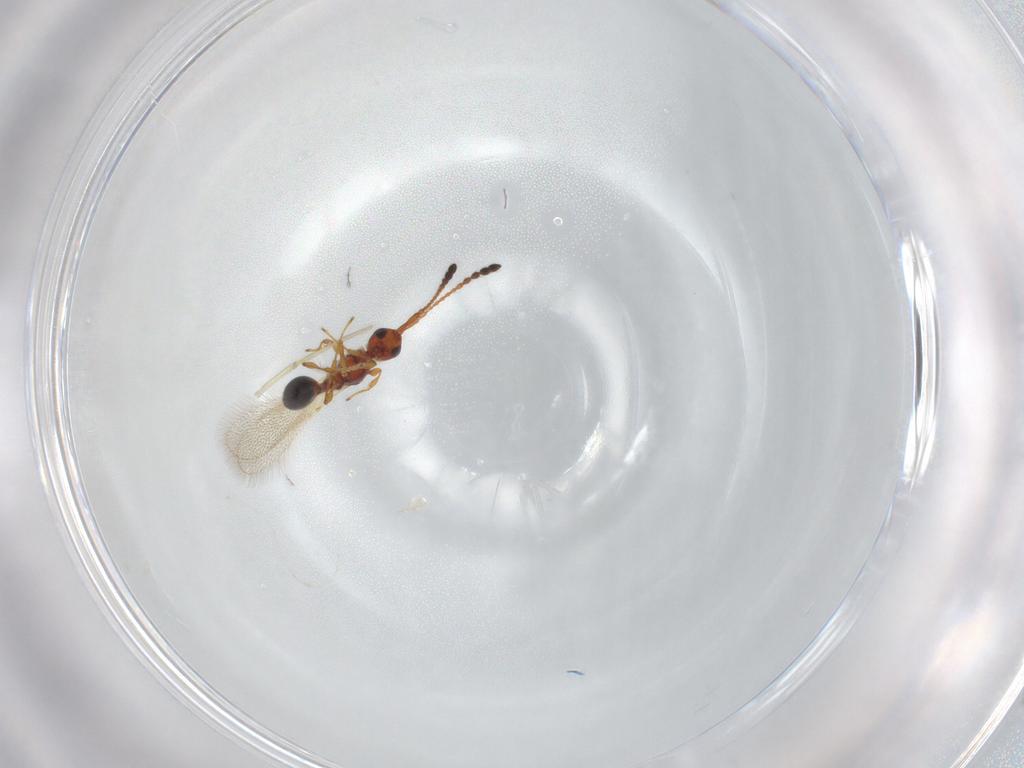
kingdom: Animalia
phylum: Arthropoda
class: Insecta
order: Hymenoptera
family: Diapriidae
